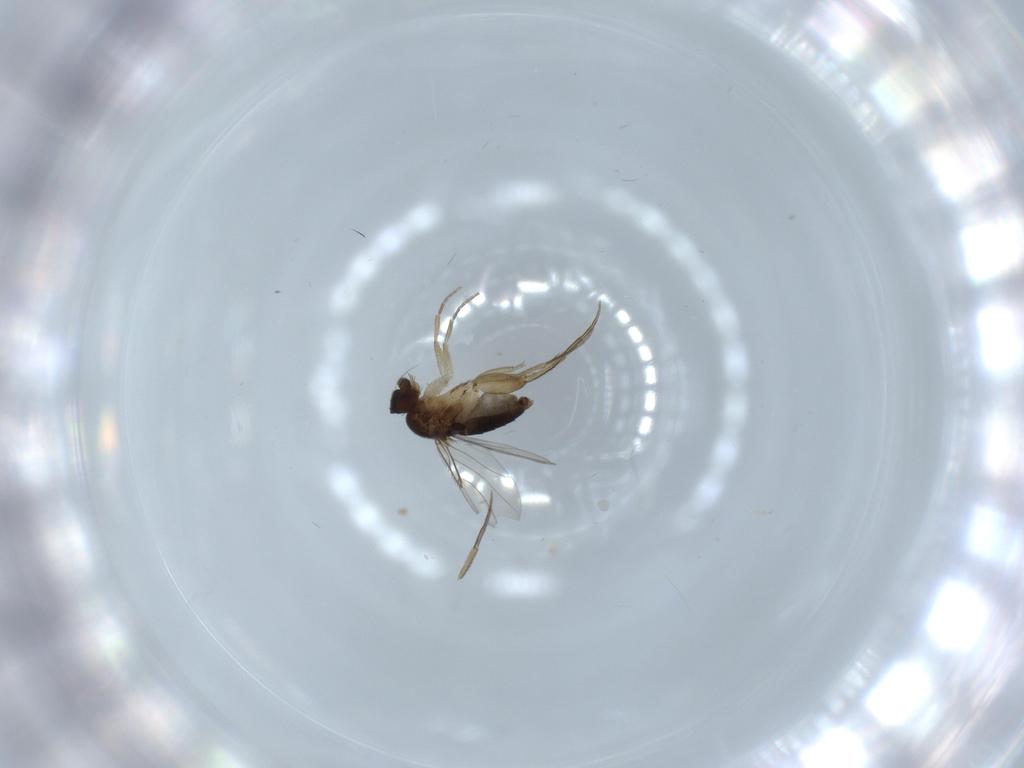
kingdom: Animalia
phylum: Arthropoda
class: Insecta
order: Diptera
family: Phoridae
